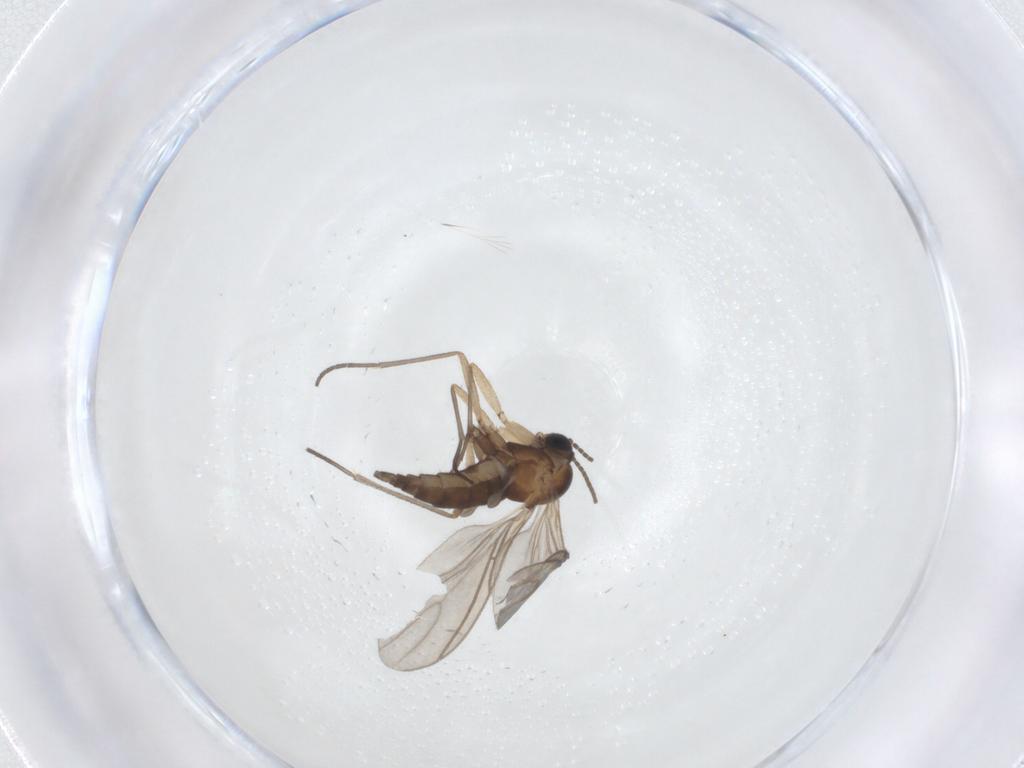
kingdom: Animalia
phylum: Arthropoda
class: Insecta
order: Diptera
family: Sciaridae
